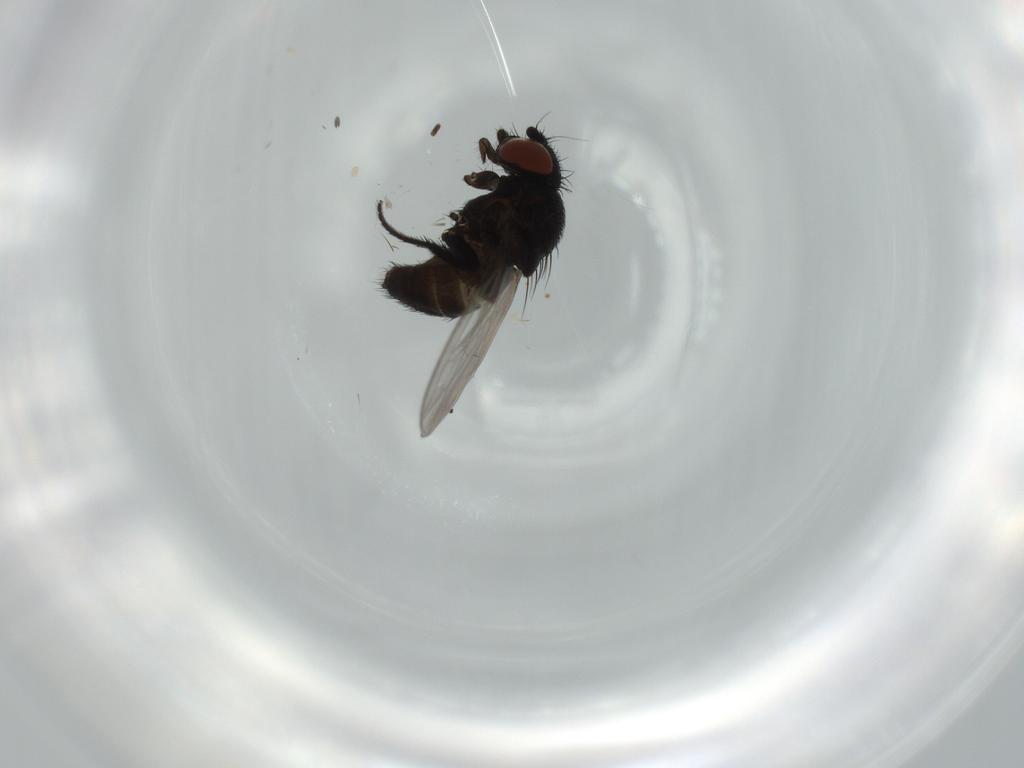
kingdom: Animalia
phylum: Arthropoda
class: Insecta
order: Diptera
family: Milichiidae
